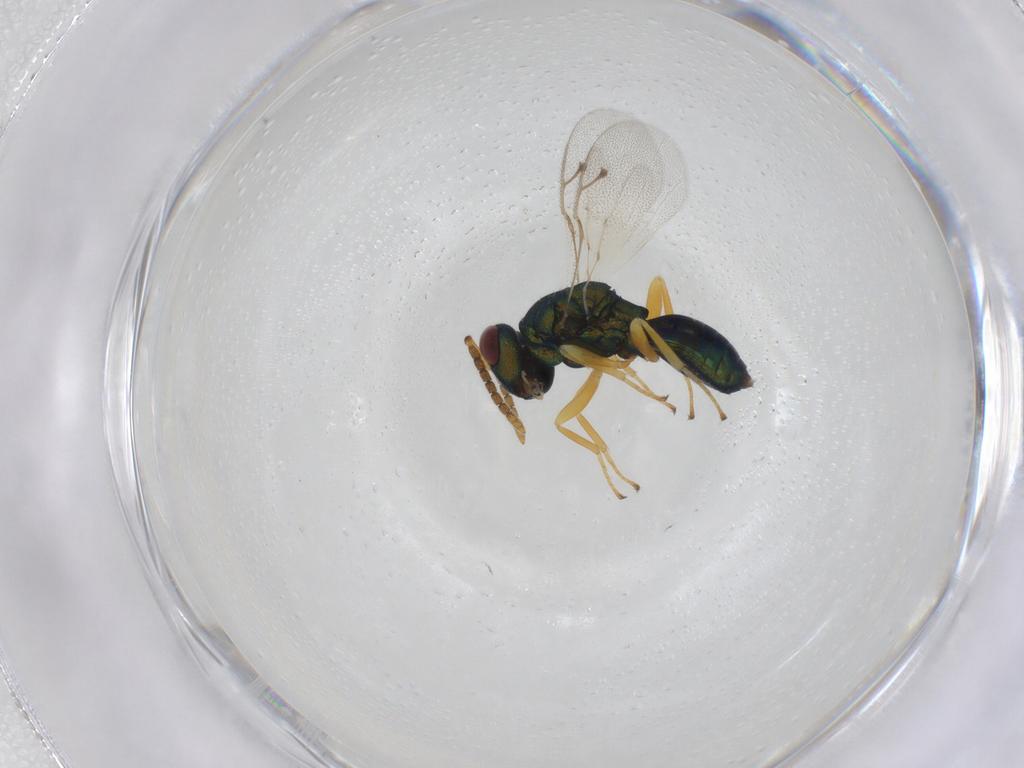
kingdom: Animalia
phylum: Arthropoda
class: Insecta
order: Hymenoptera
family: Pteromalidae
